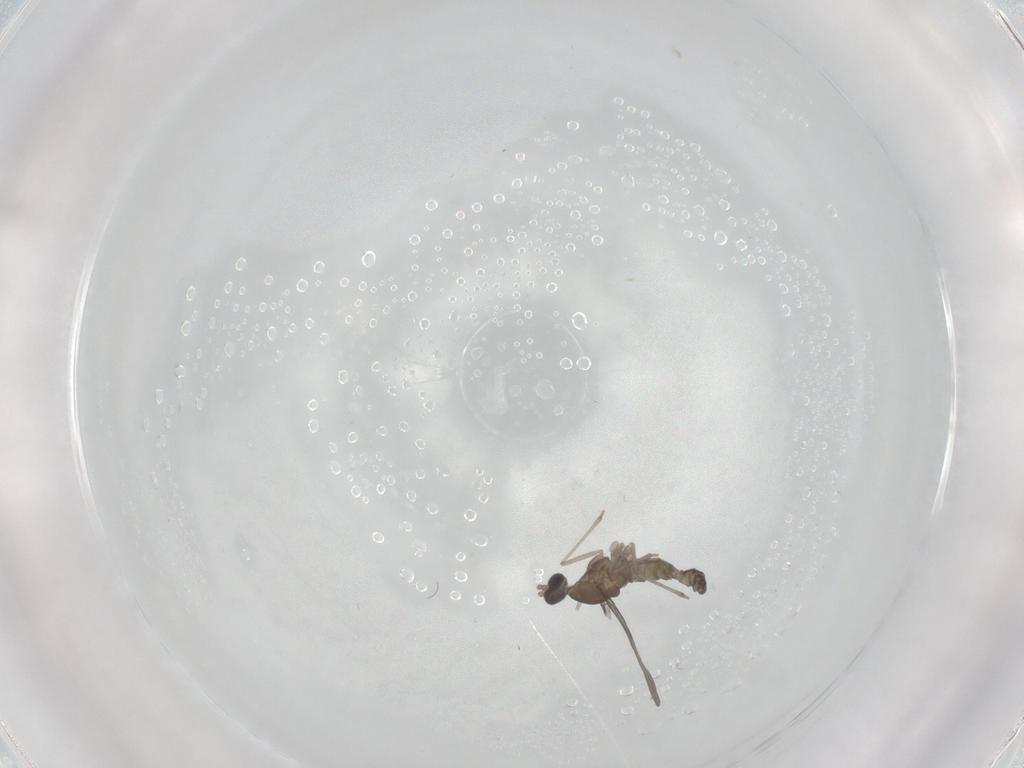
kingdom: Animalia
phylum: Arthropoda
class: Insecta
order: Diptera
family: Cecidomyiidae
